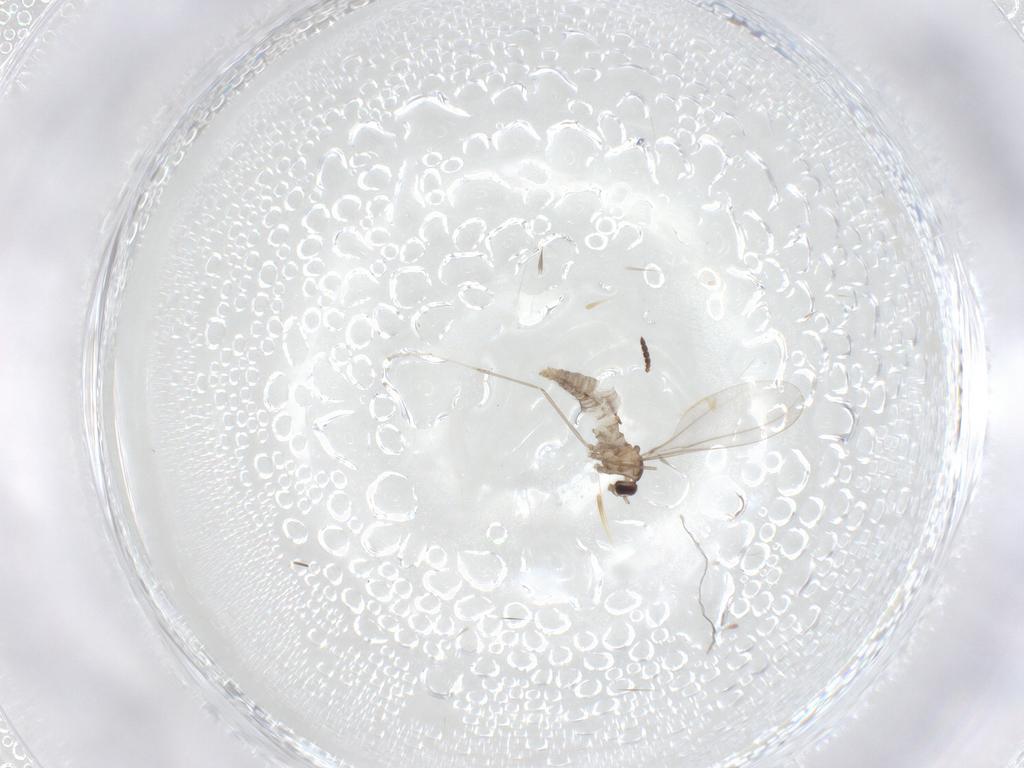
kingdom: Animalia
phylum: Arthropoda
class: Insecta
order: Diptera
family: Cecidomyiidae
